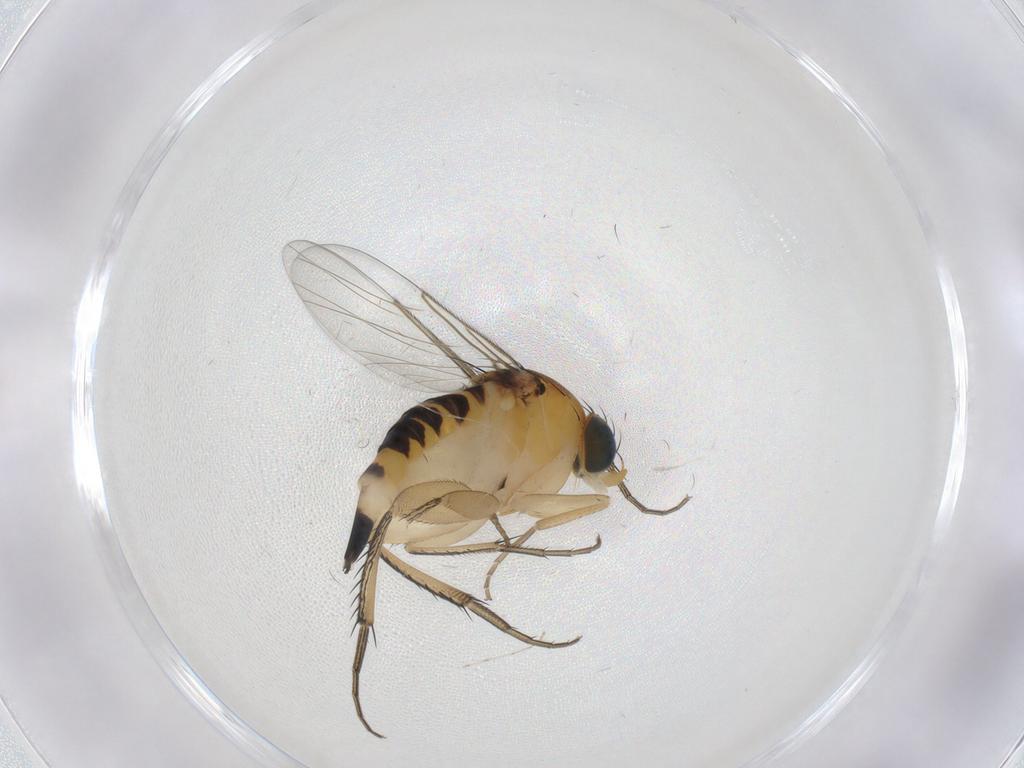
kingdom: Animalia
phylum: Arthropoda
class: Insecta
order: Diptera
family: Phoridae
